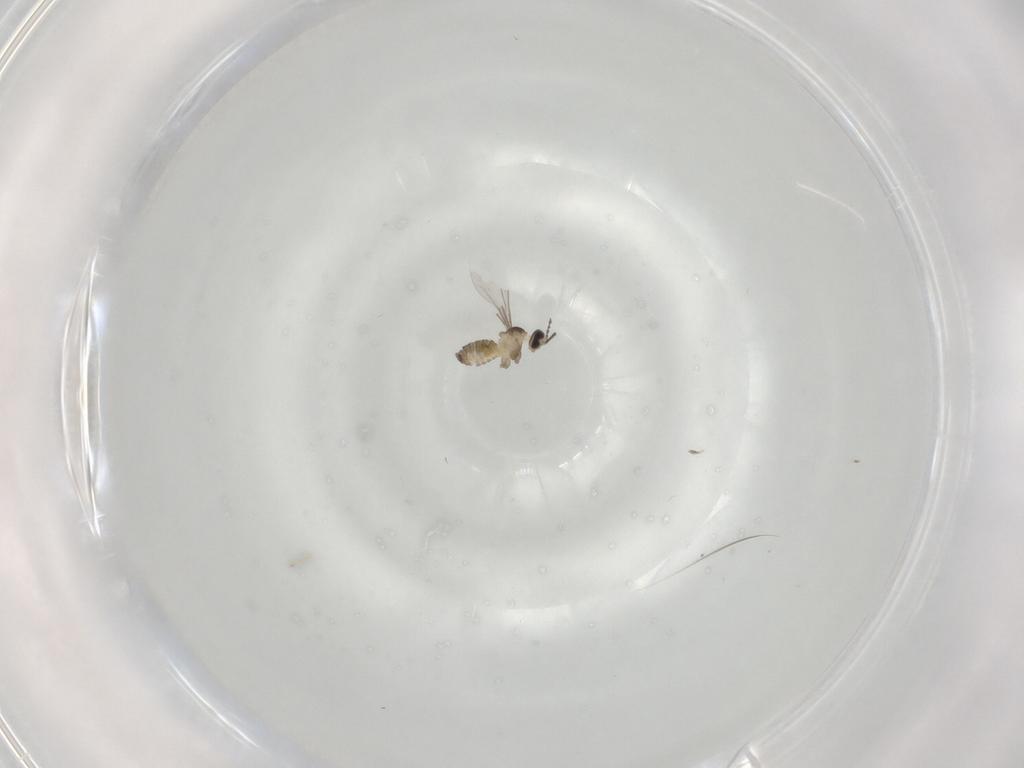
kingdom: Animalia
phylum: Arthropoda
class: Insecta
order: Diptera
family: Cecidomyiidae
